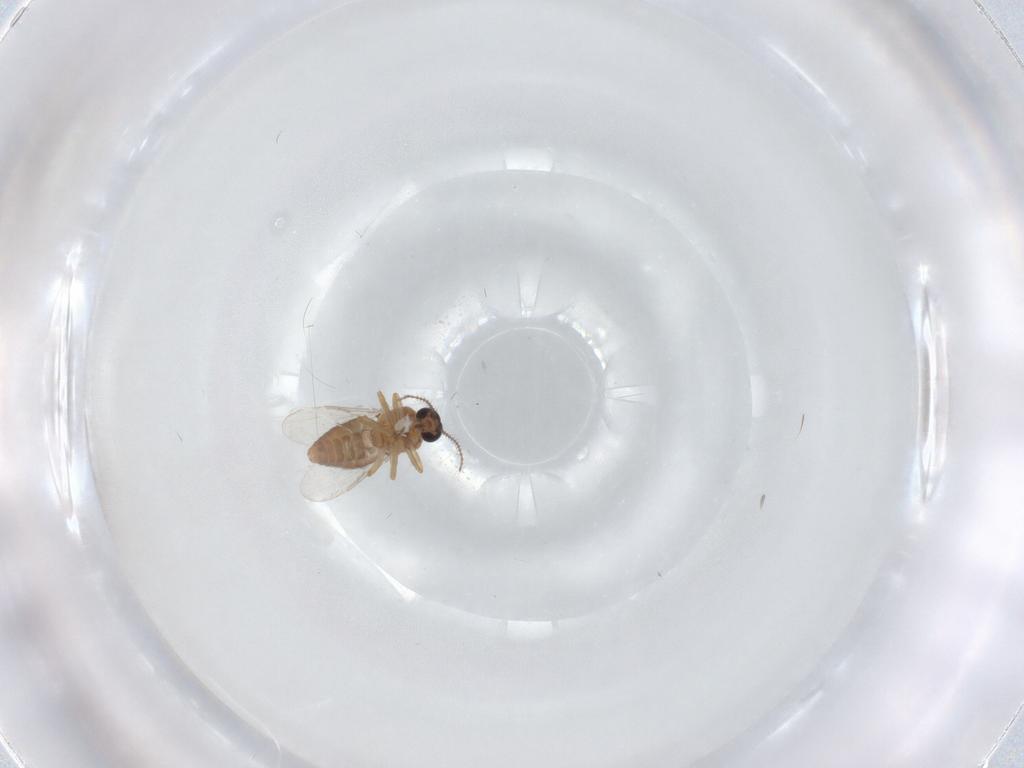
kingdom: Animalia
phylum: Arthropoda
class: Insecta
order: Diptera
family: Ceratopogonidae
